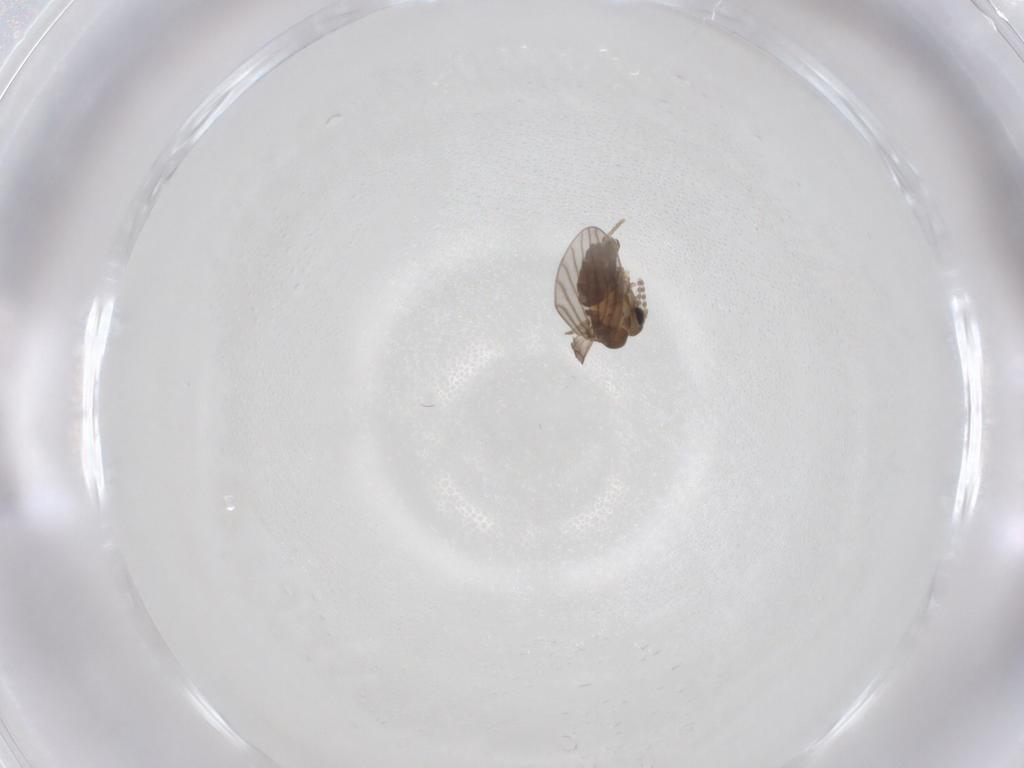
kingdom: Animalia
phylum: Arthropoda
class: Insecta
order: Diptera
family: Psychodidae
